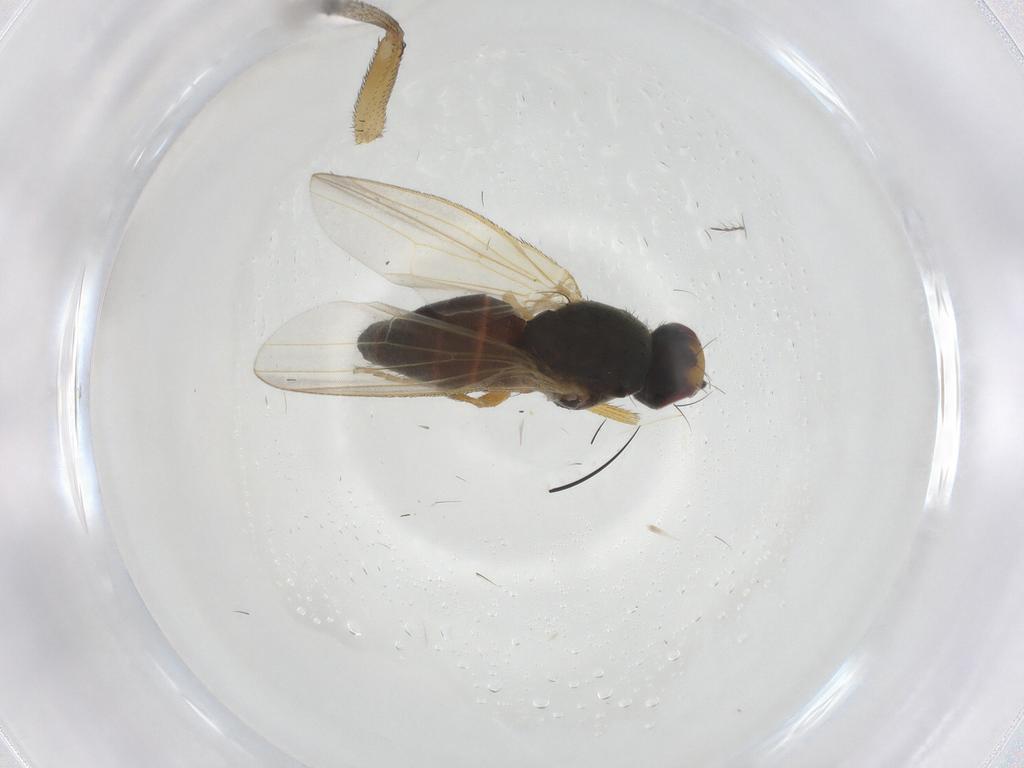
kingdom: Animalia
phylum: Arthropoda
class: Insecta
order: Diptera
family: Heleomyzidae
